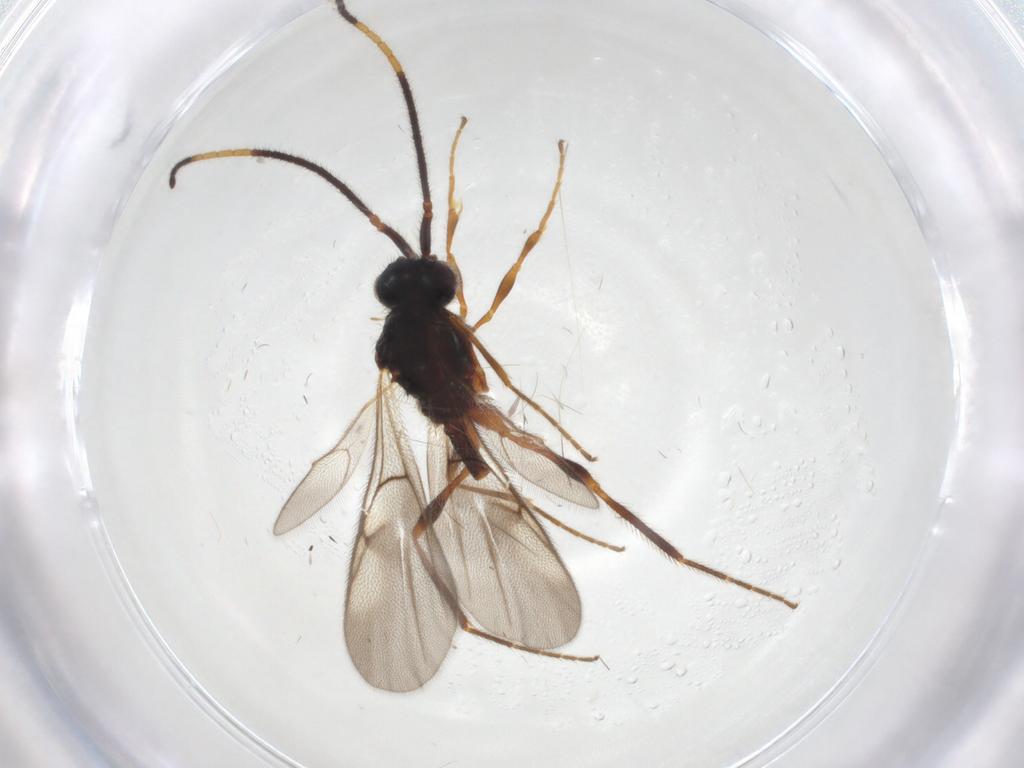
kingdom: Animalia
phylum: Arthropoda
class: Insecta
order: Hymenoptera
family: Diapriidae
